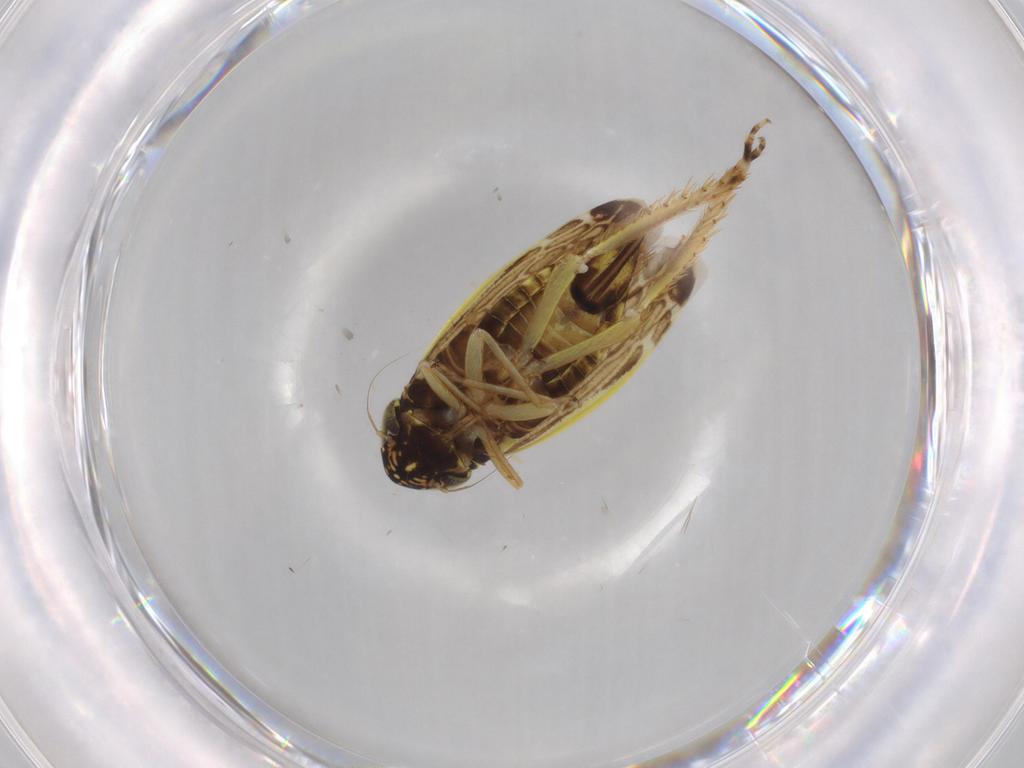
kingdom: Animalia
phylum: Arthropoda
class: Insecta
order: Hemiptera
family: Cicadellidae
